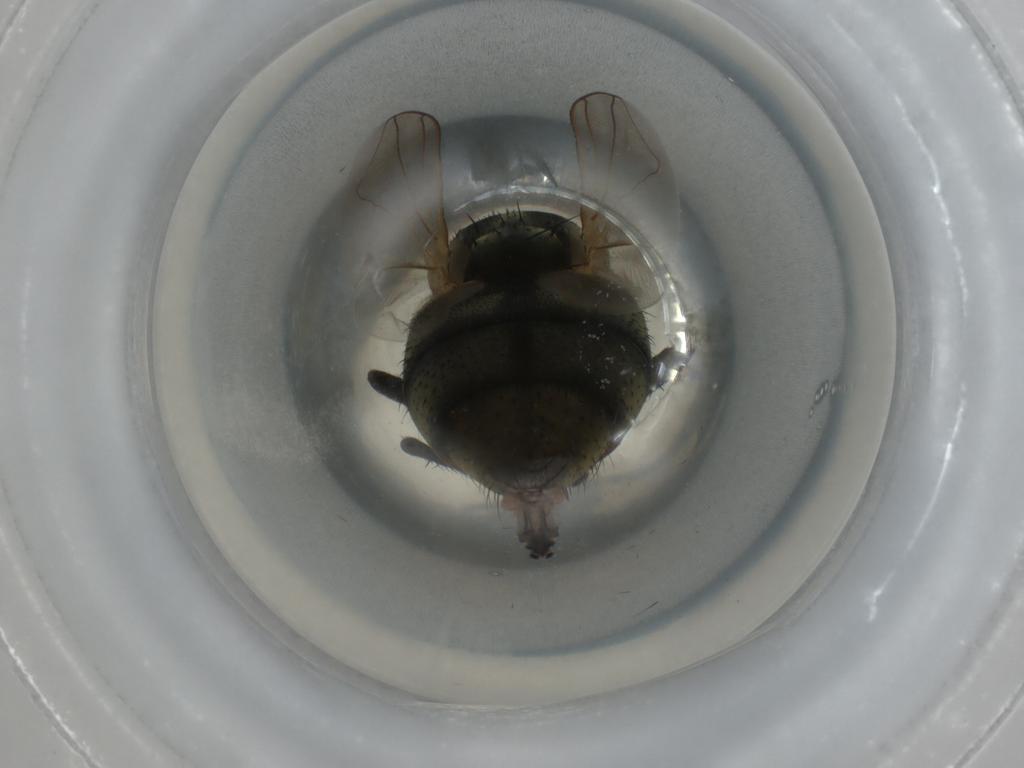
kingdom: Animalia
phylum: Arthropoda
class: Insecta
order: Diptera
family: Muscidae
